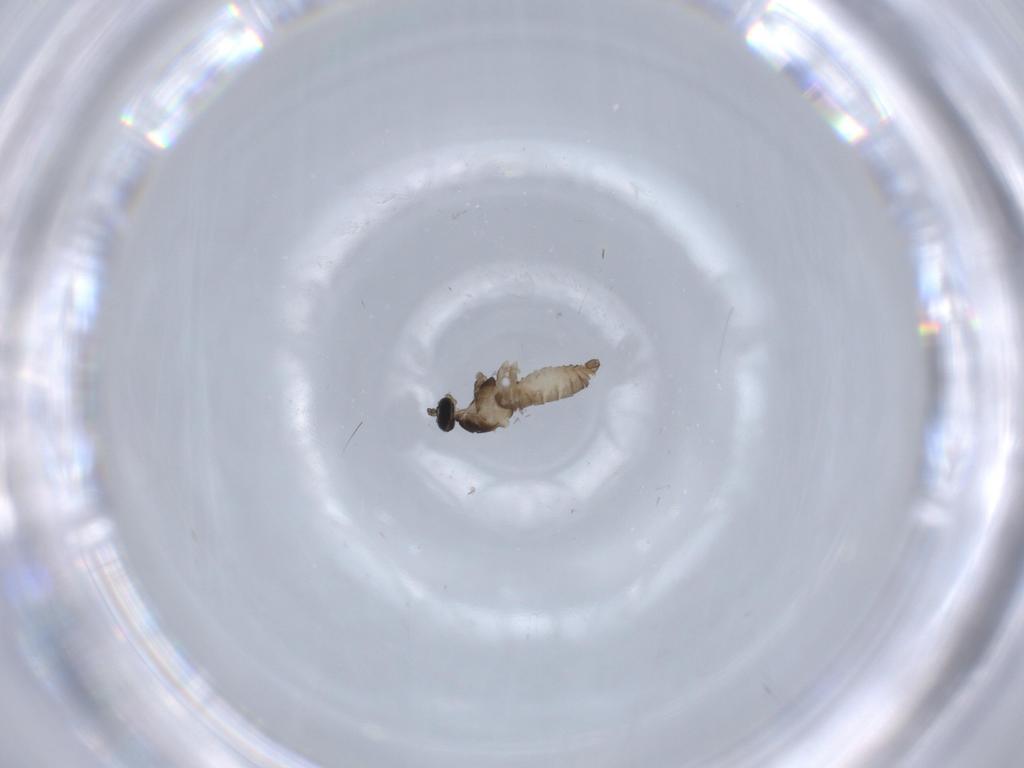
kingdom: Animalia
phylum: Arthropoda
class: Insecta
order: Diptera
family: Cecidomyiidae
